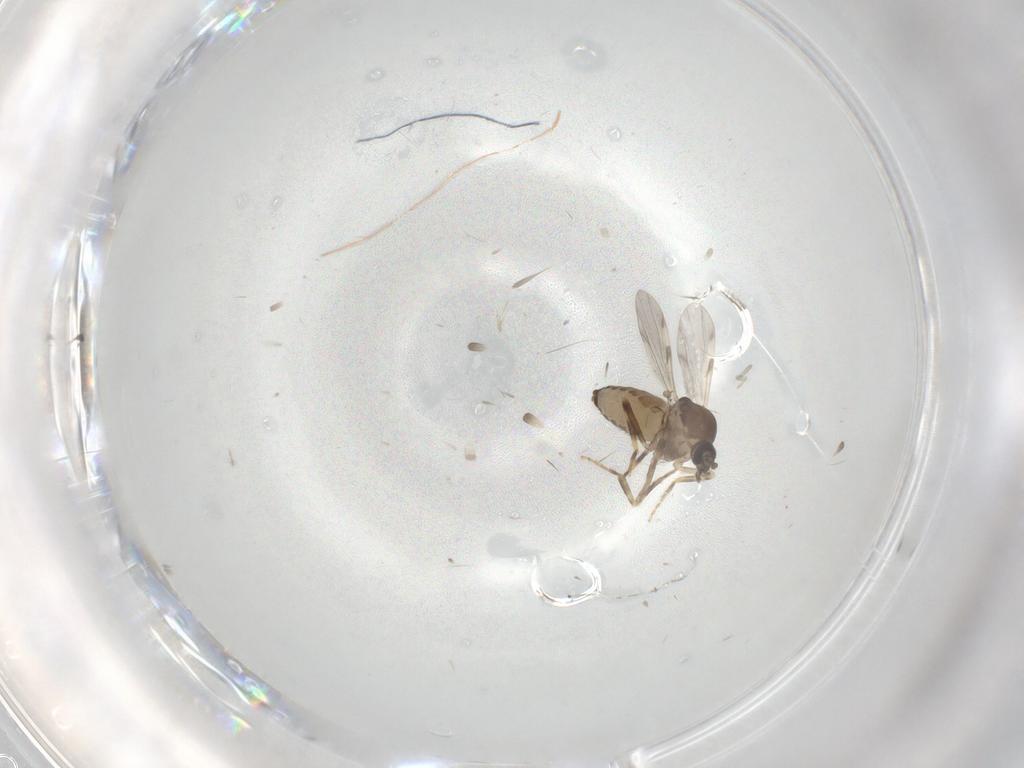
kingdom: Animalia
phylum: Arthropoda
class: Insecta
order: Diptera
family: Ceratopogonidae
